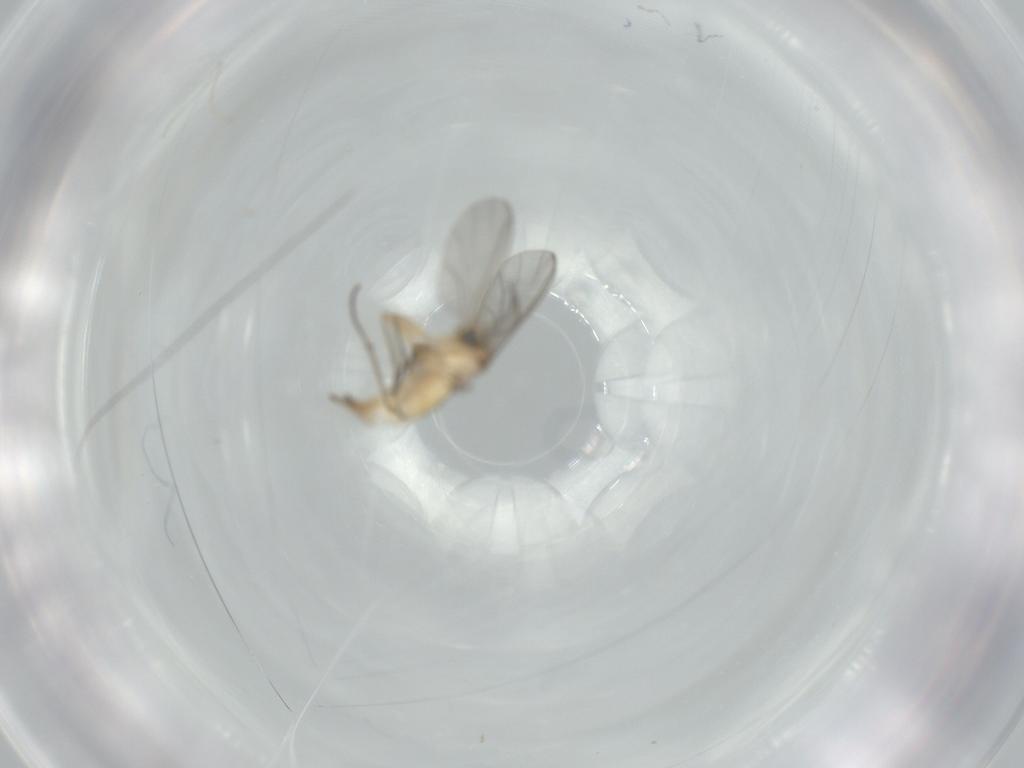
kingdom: Animalia
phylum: Arthropoda
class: Insecta
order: Diptera
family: Sciaridae
